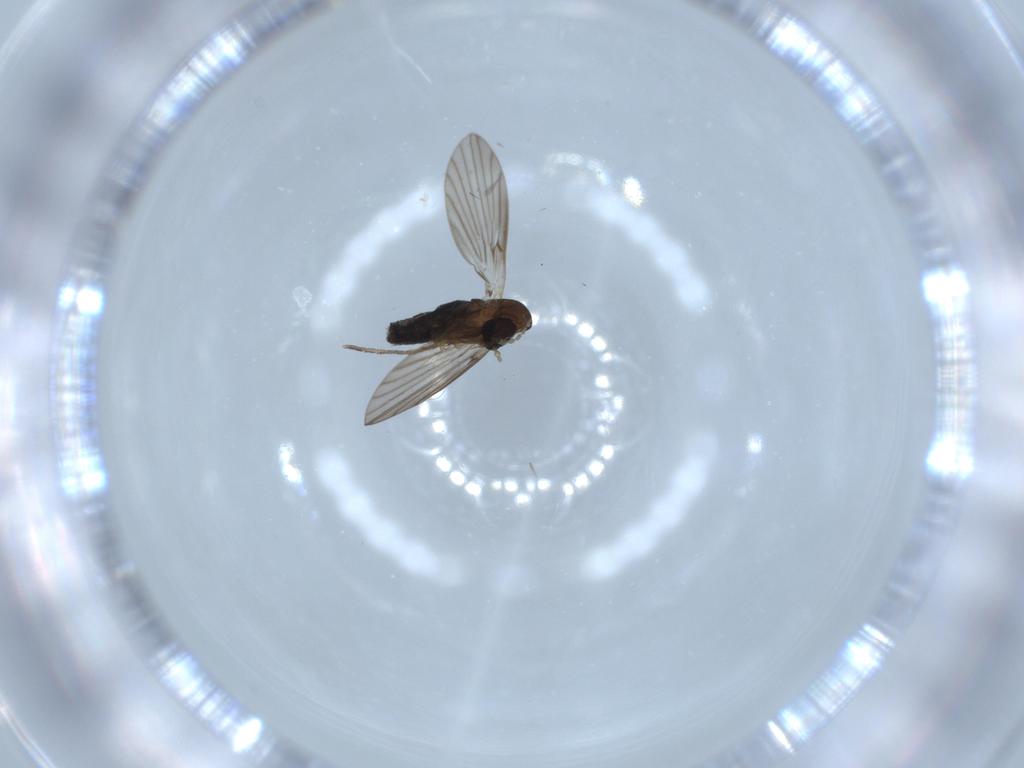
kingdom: Animalia
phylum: Arthropoda
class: Insecta
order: Diptera
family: Psychodidae
